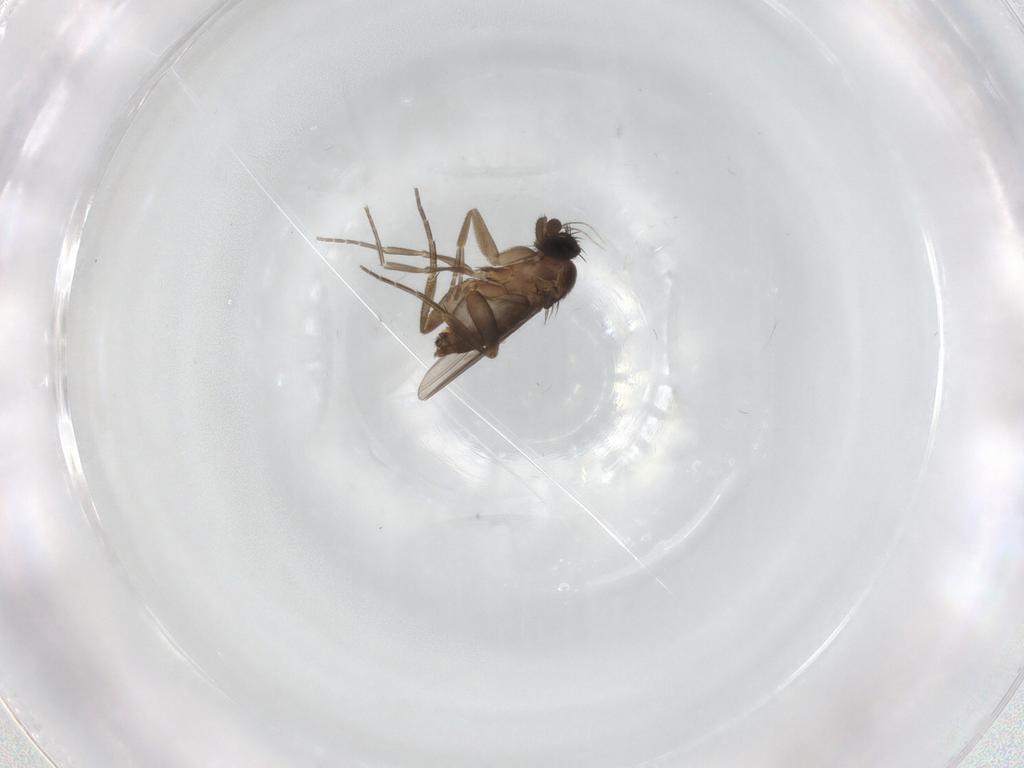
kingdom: Animalia
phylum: Arthropoda
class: Insecta
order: Diptera
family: Phoridae
